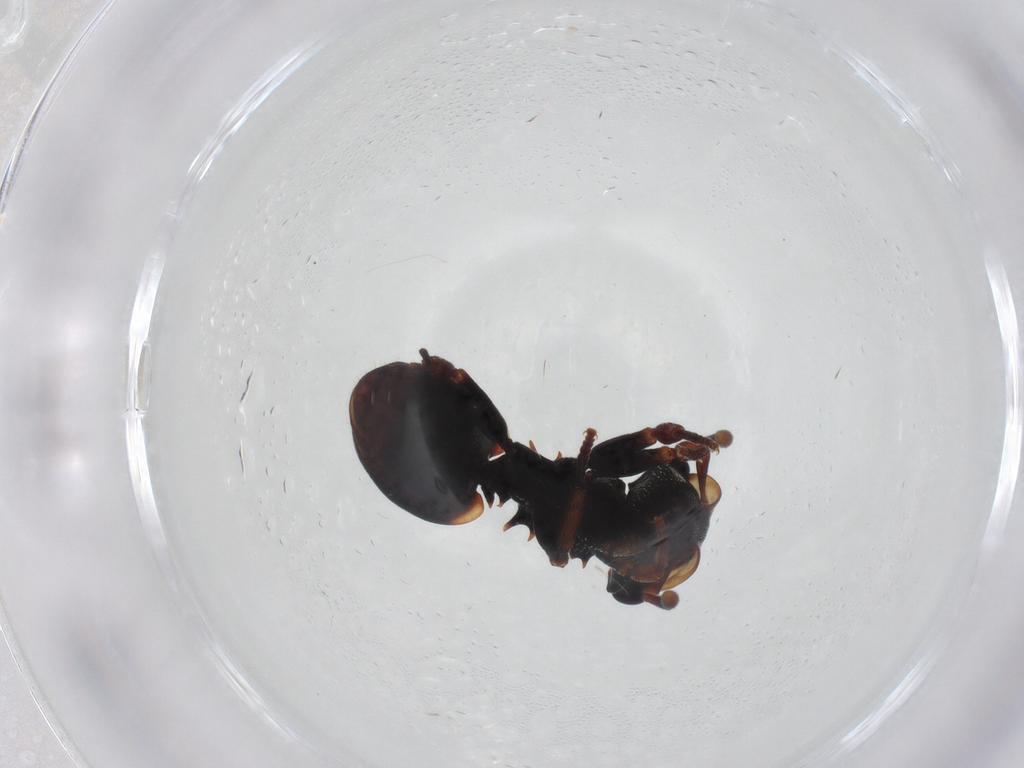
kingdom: Animalia
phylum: Arthropoda
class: Insecta
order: Hymenoptera
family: Formicidae
